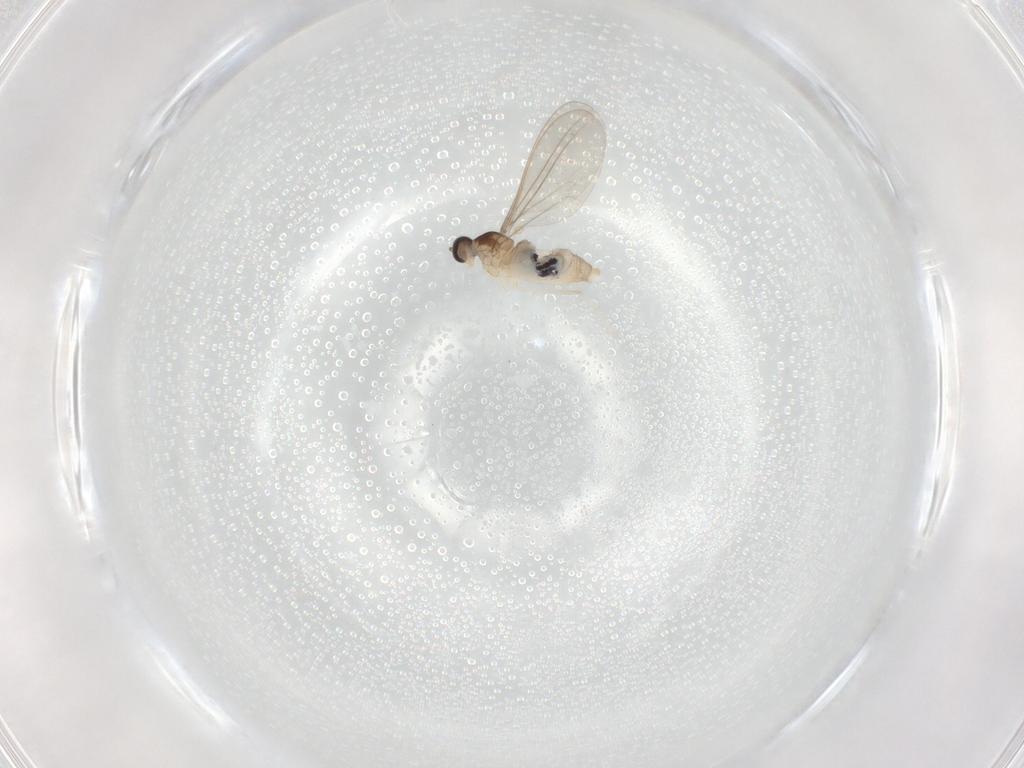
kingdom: Animalia
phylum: Arthropoda
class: Insecta
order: Diptera
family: Cecidomyiidae
